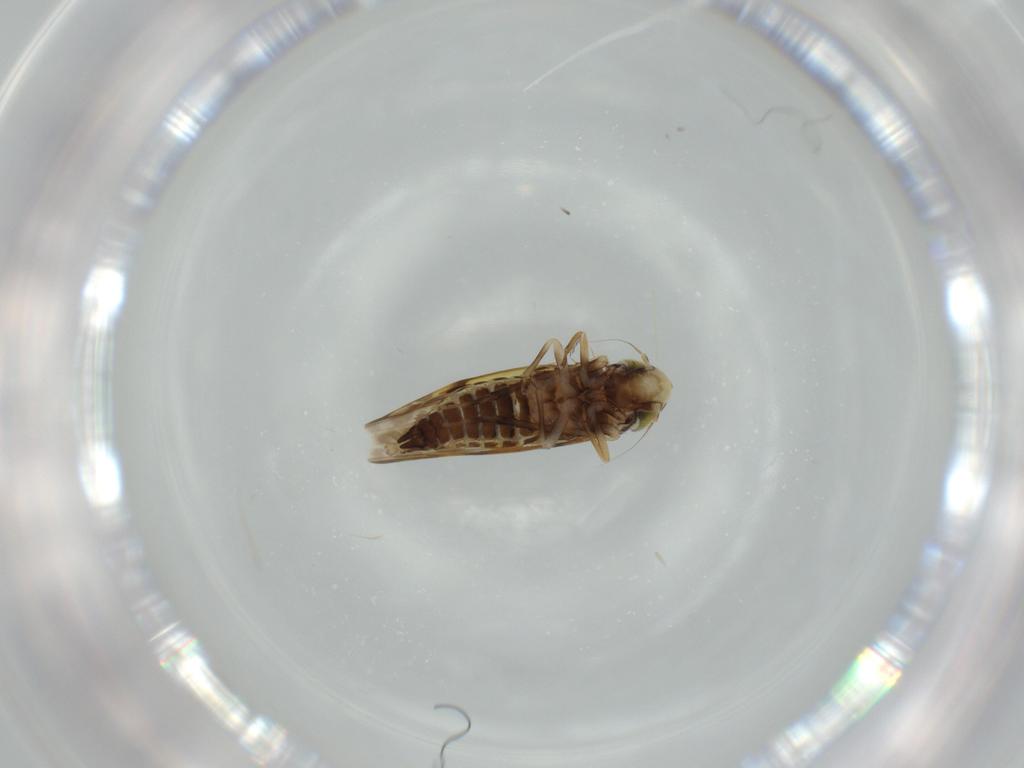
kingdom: Animalia
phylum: Arthropoda
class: Insecta
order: Hemiptera
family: Cicadellidae
